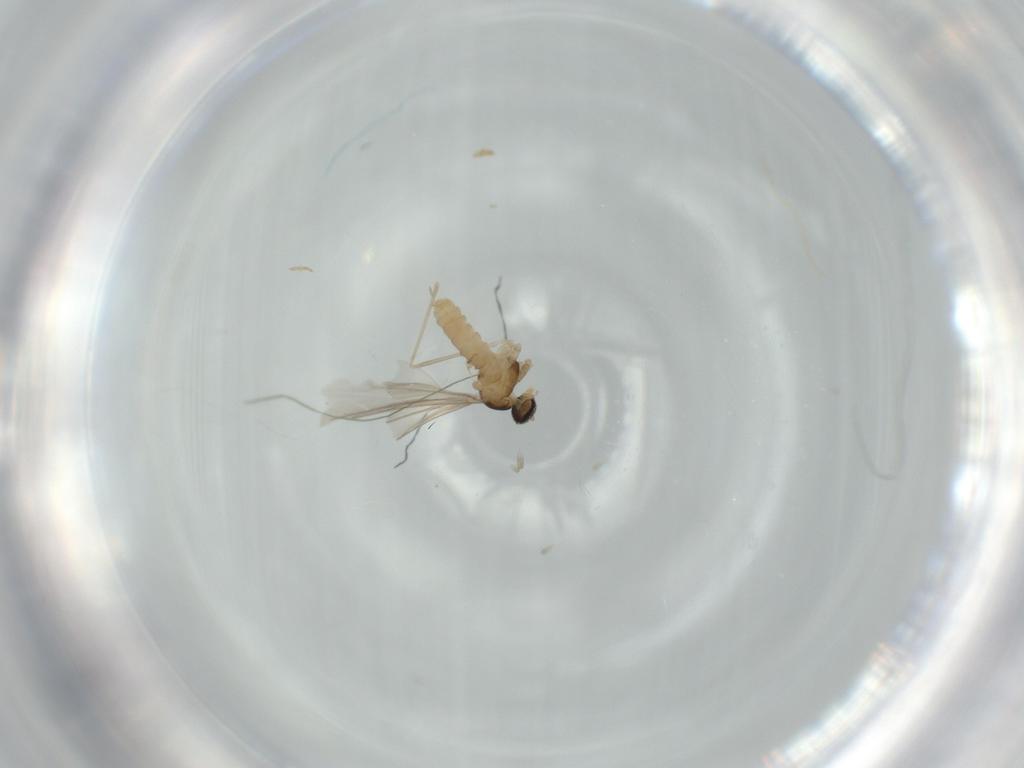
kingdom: Animalia
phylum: Arthropoda
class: Insecta
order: Diptera
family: Cecidomyiidae
